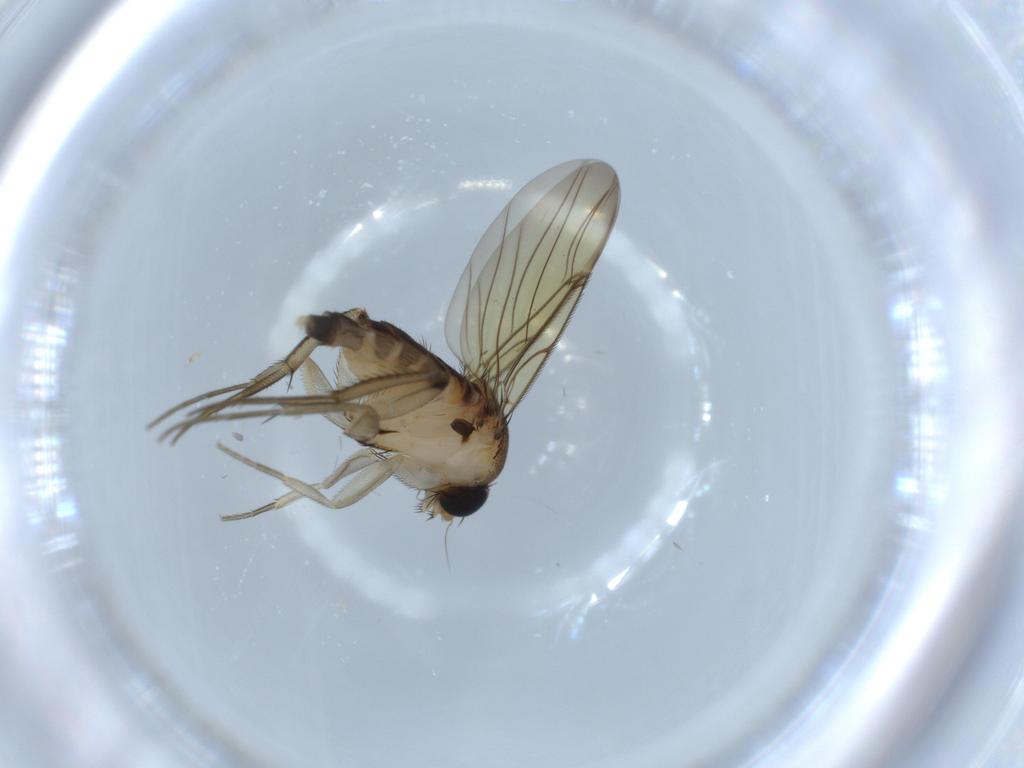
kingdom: Animalia
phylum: Arthropoda
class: Insecta
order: Diptera
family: Phoridae
